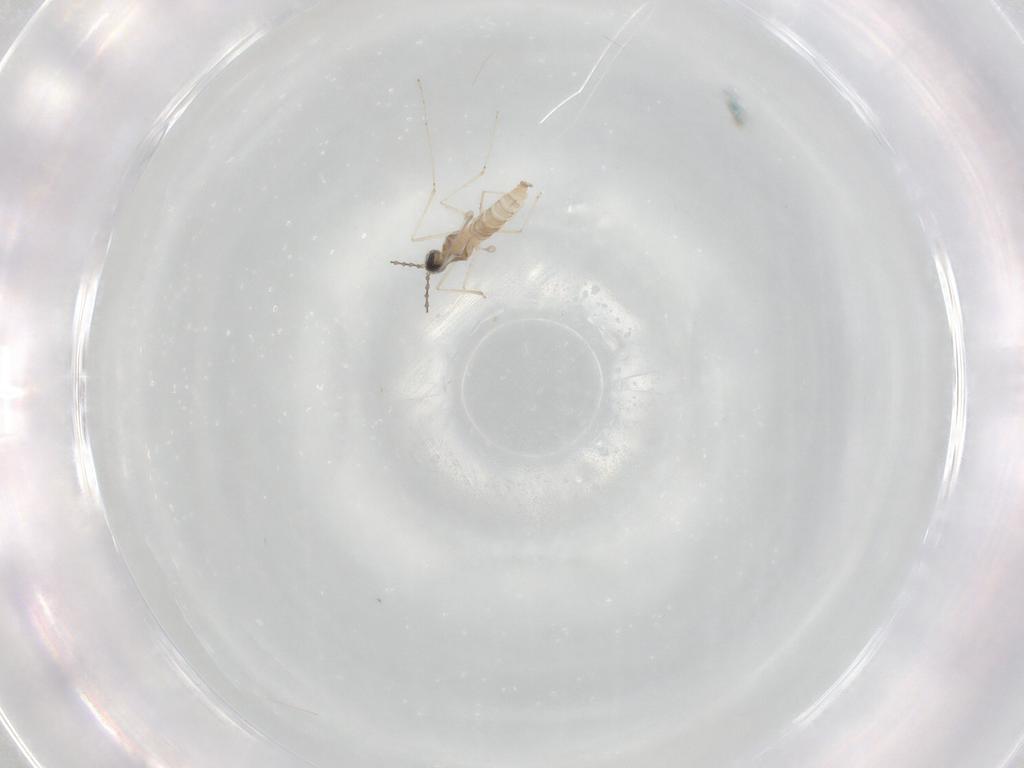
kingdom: Animalia
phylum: Arthropoda
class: Insecta
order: Diptera
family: Cecidomyiidae
